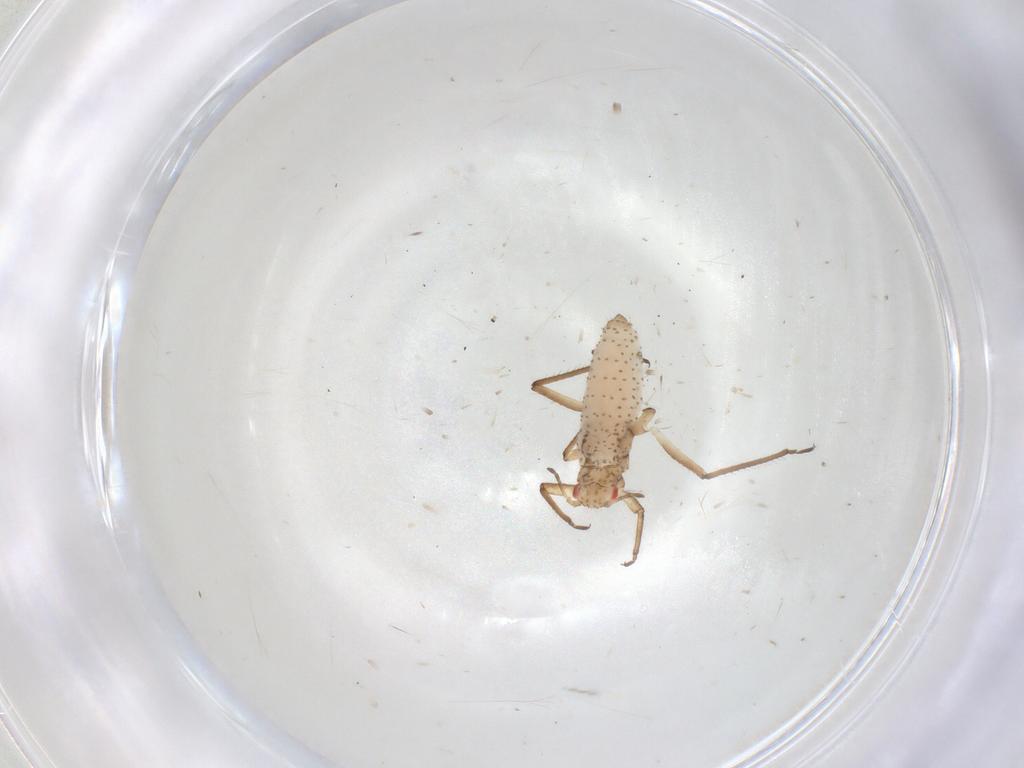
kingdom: Animalia
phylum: Arthropoda
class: Insecta
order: Hemiptera
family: Aphididae
